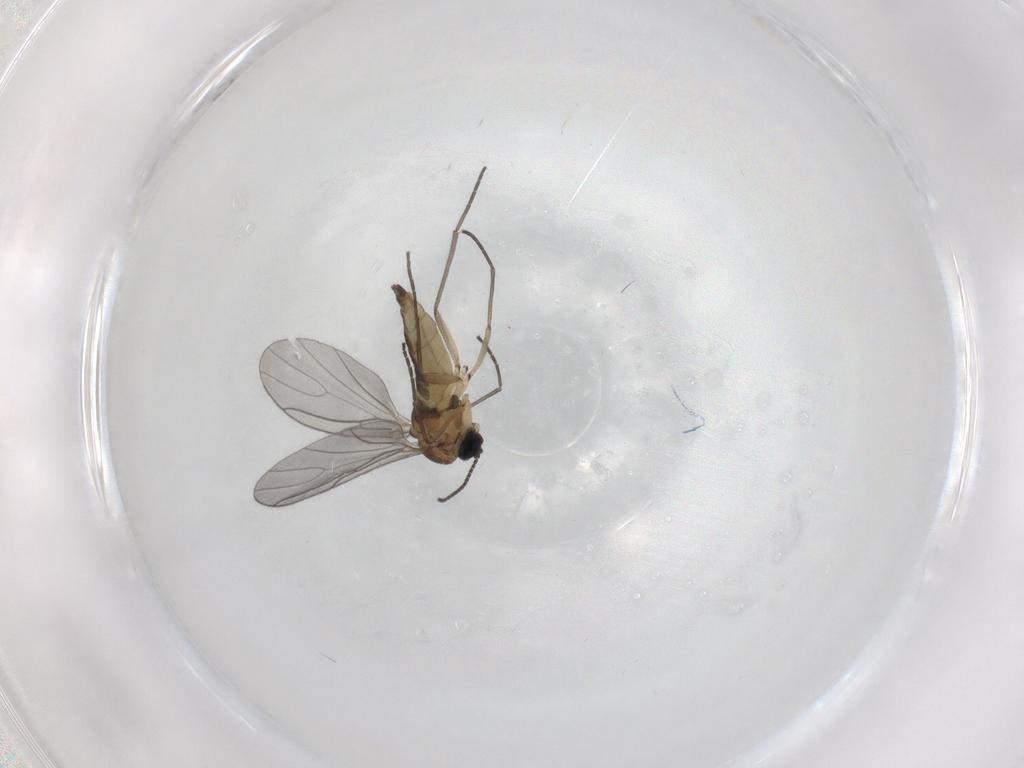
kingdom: Animalia
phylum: Arthropoda
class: Insecta
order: Diptera
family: Sciaridae
